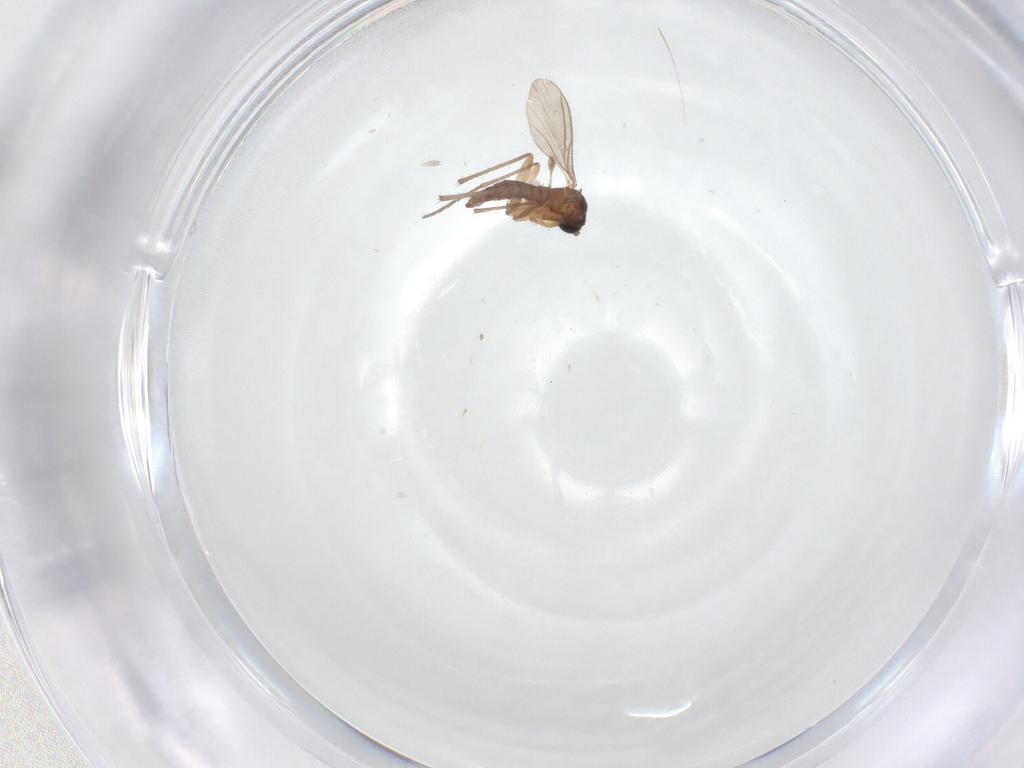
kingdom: Animalia
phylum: Arthropoda
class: Insecta
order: Diptera
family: Sciaridae
